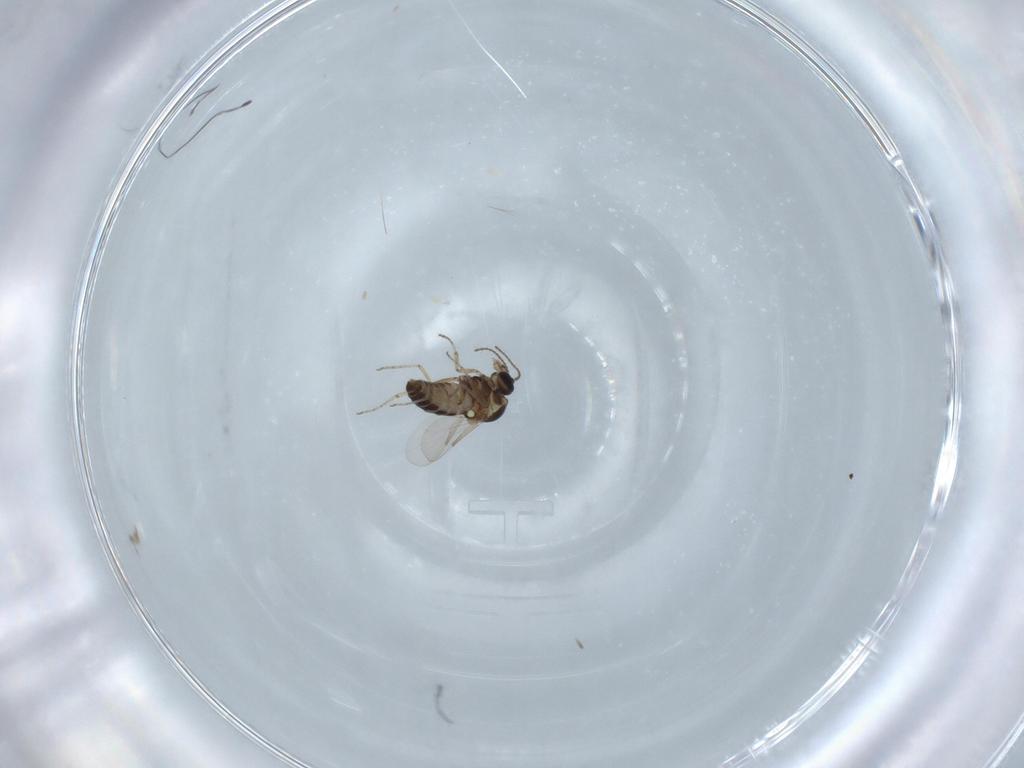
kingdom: Animalia
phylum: Arthropoda
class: Insecta
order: Diptera
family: Ceratopogonidae
